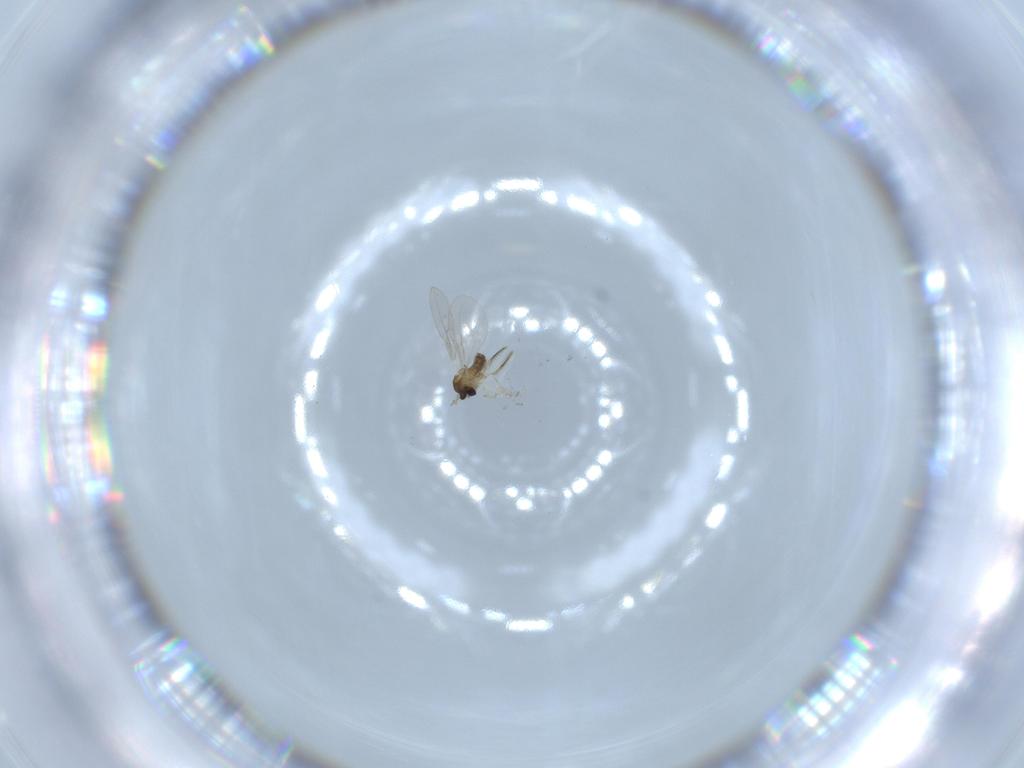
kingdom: Animalia
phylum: Arthropoda
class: Insecta
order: Diptera
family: Cecidomyiidae
